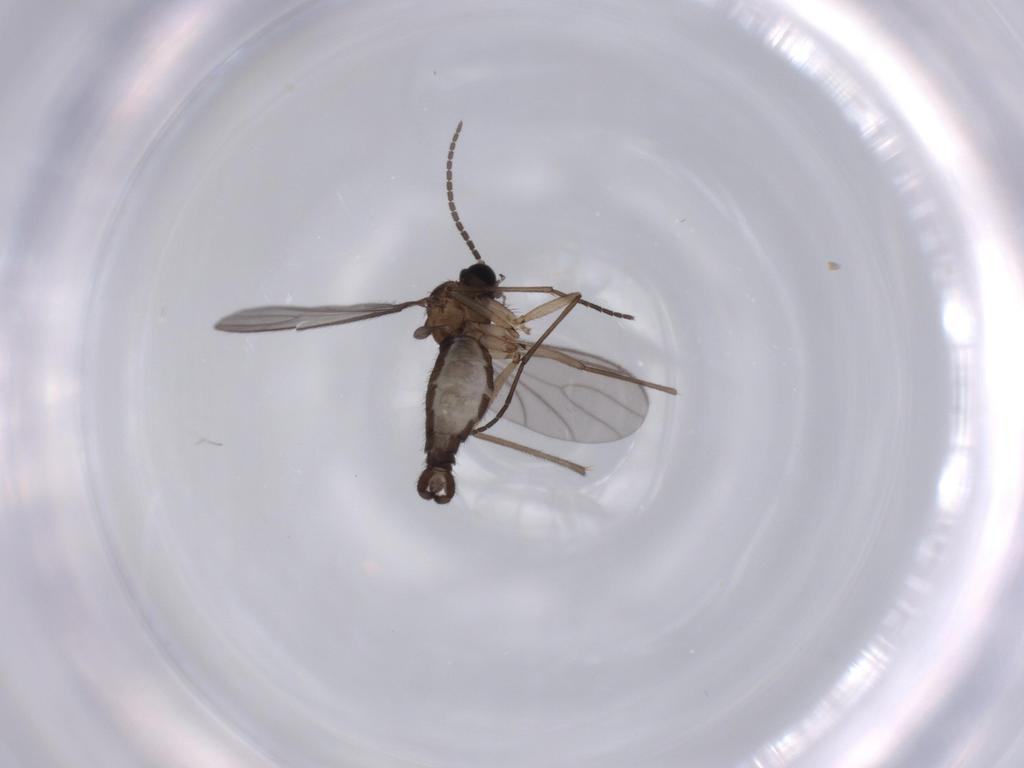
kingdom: Animalia
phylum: Arthropoda
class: Insecta
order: Diptera
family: Sciaridae
